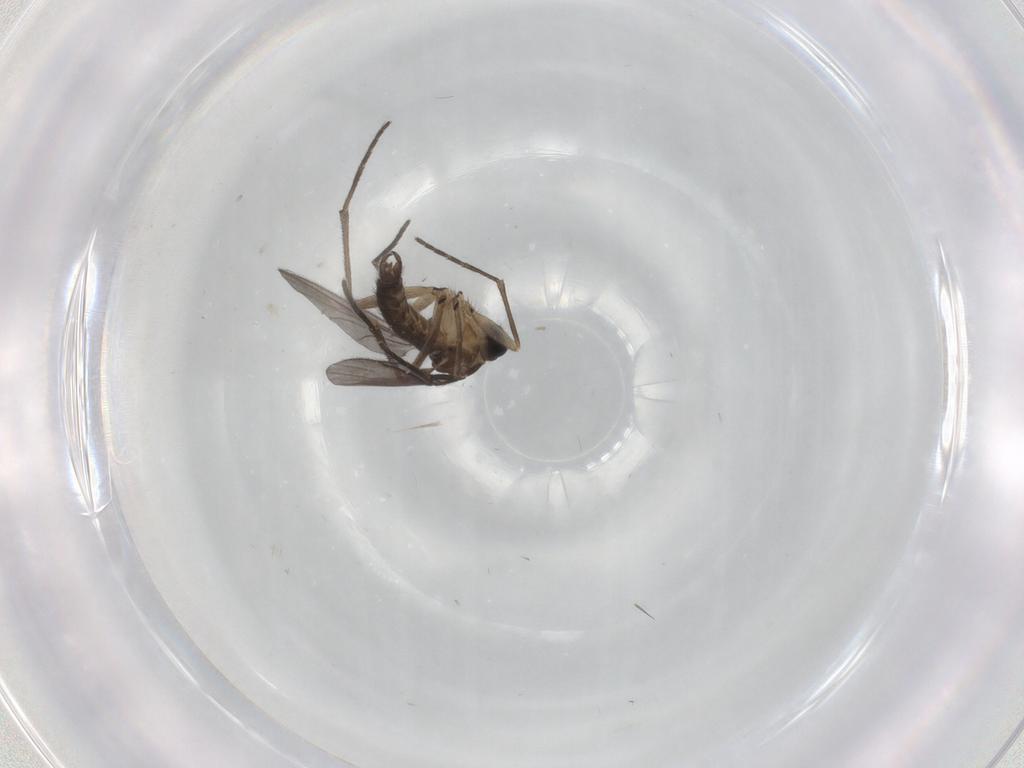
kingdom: Animalia
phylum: Arthropoda
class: Insecta
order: Diptera
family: Sciaridae
